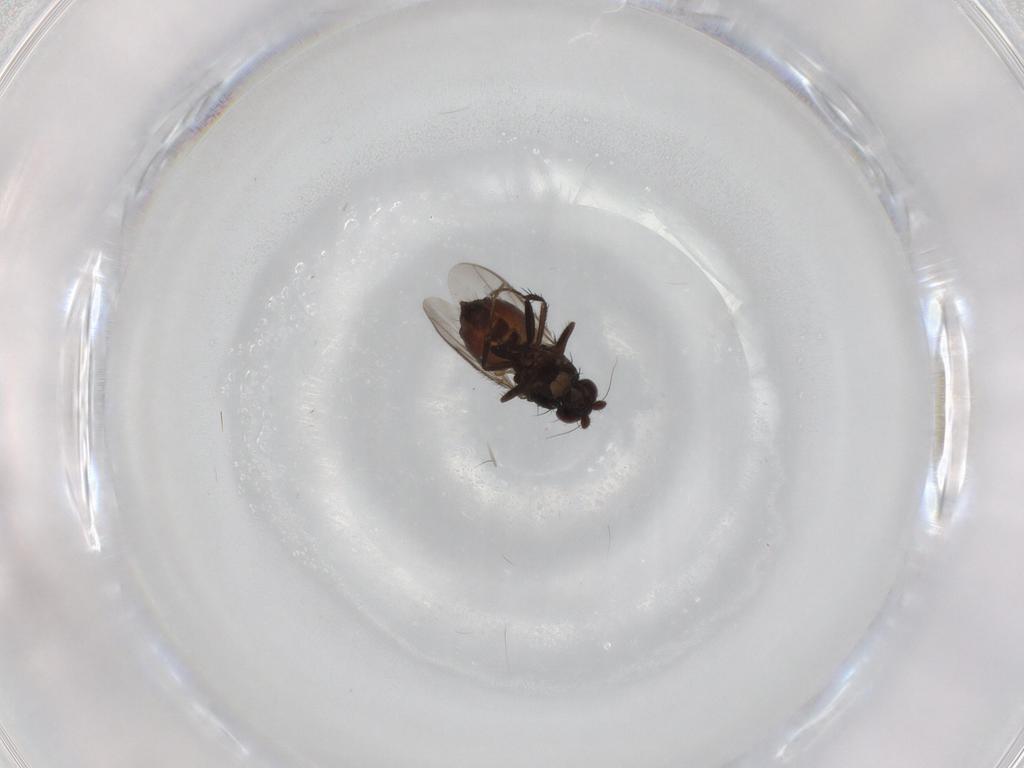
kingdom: Animalia
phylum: Arthropoda
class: Insecta
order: Diptera
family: Sphaeroceridae
